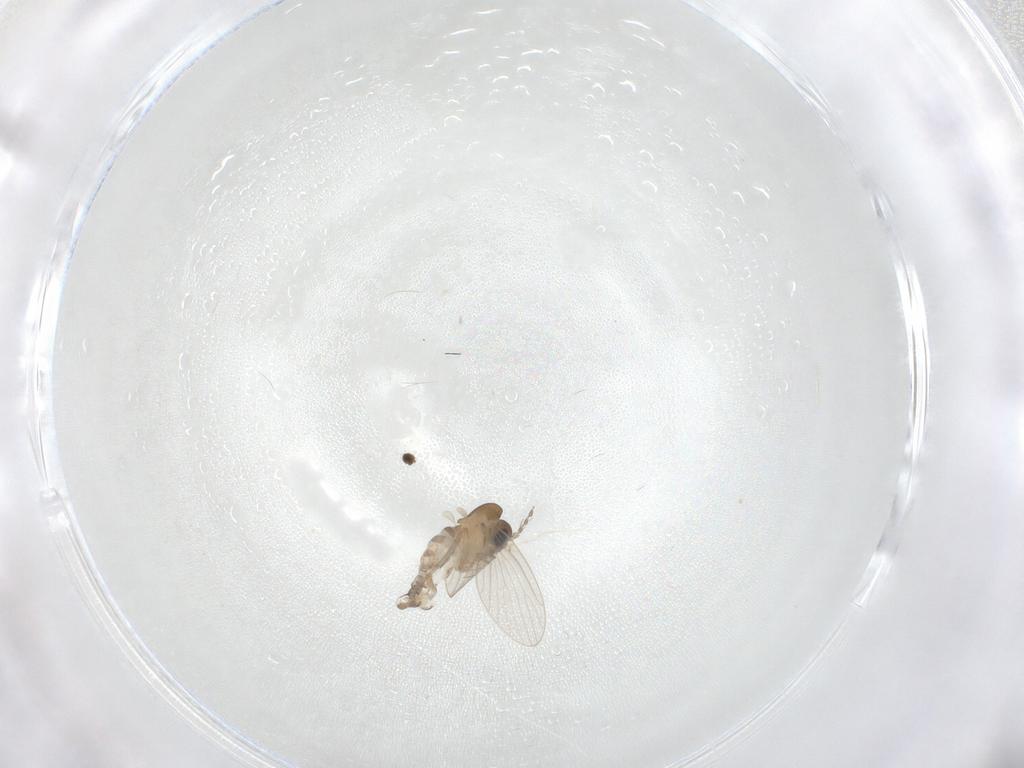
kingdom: Animalia
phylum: Arthropoda
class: Insecta
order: Diptera
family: Psychodidae
